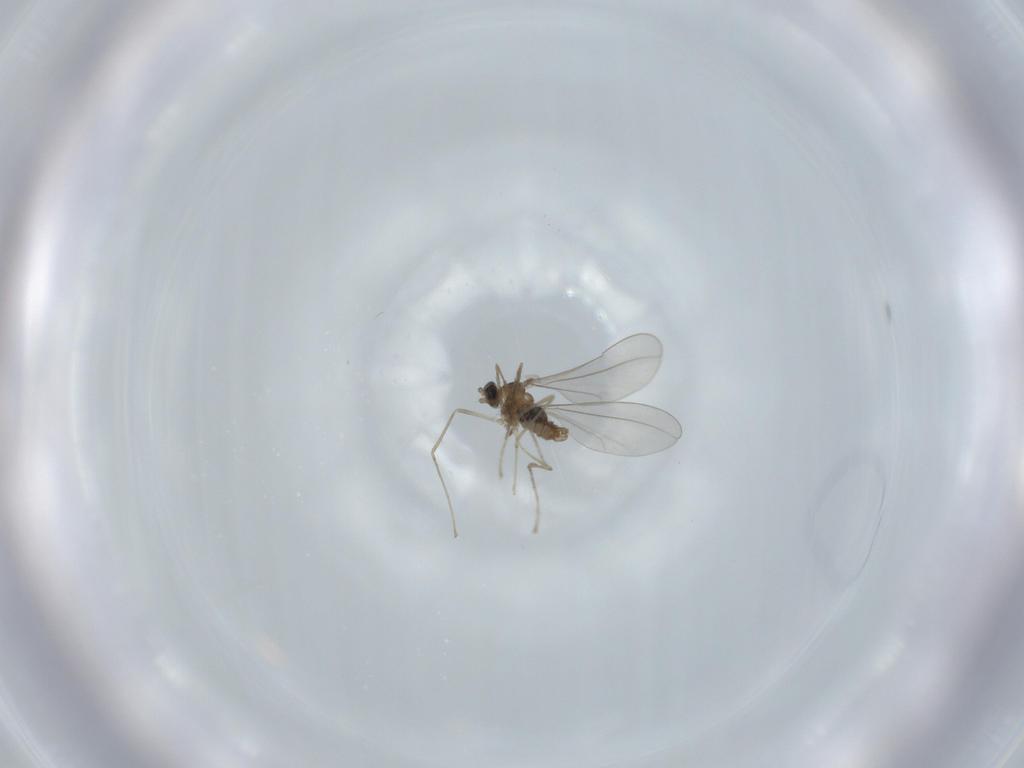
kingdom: Animalia
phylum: Arthropoda
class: Insecta
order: Diptera
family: Cecidomyiidae
